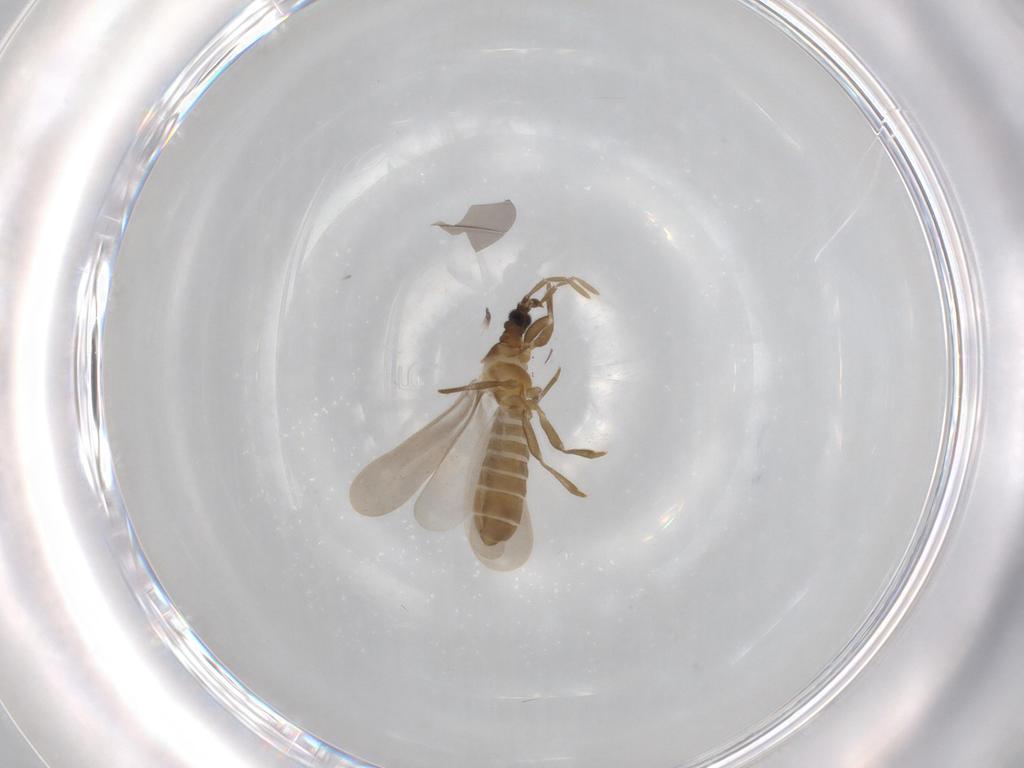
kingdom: Animalia
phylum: Arthropoda
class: Insecta
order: Hemiptera
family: Enicocephalidae
